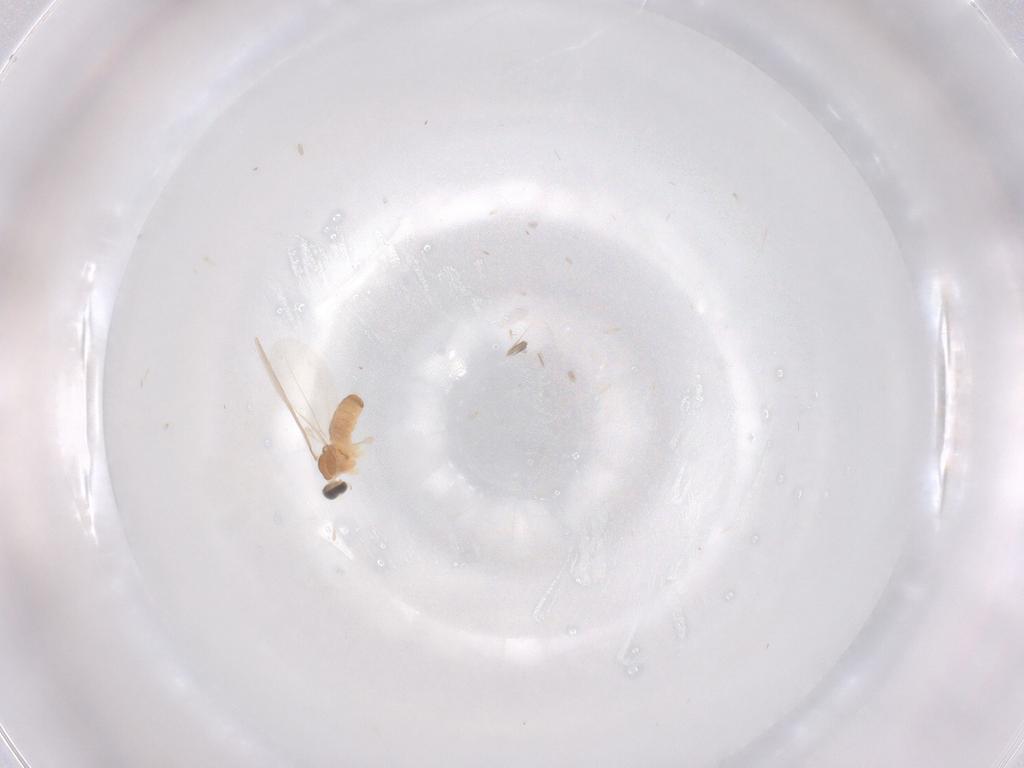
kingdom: Animalia
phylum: Arthropoda
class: Insecta
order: Diptera
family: Cecidomyiidae
